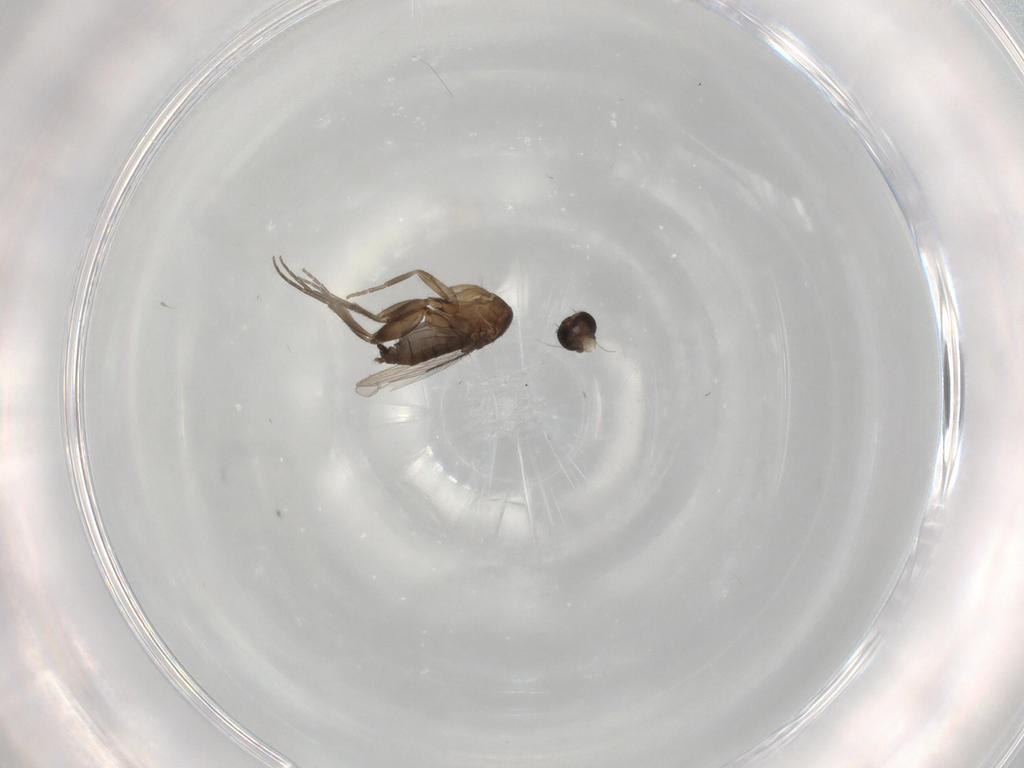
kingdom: Animalia
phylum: Arthropoda
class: Insecta
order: Diptera
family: Phoridae
